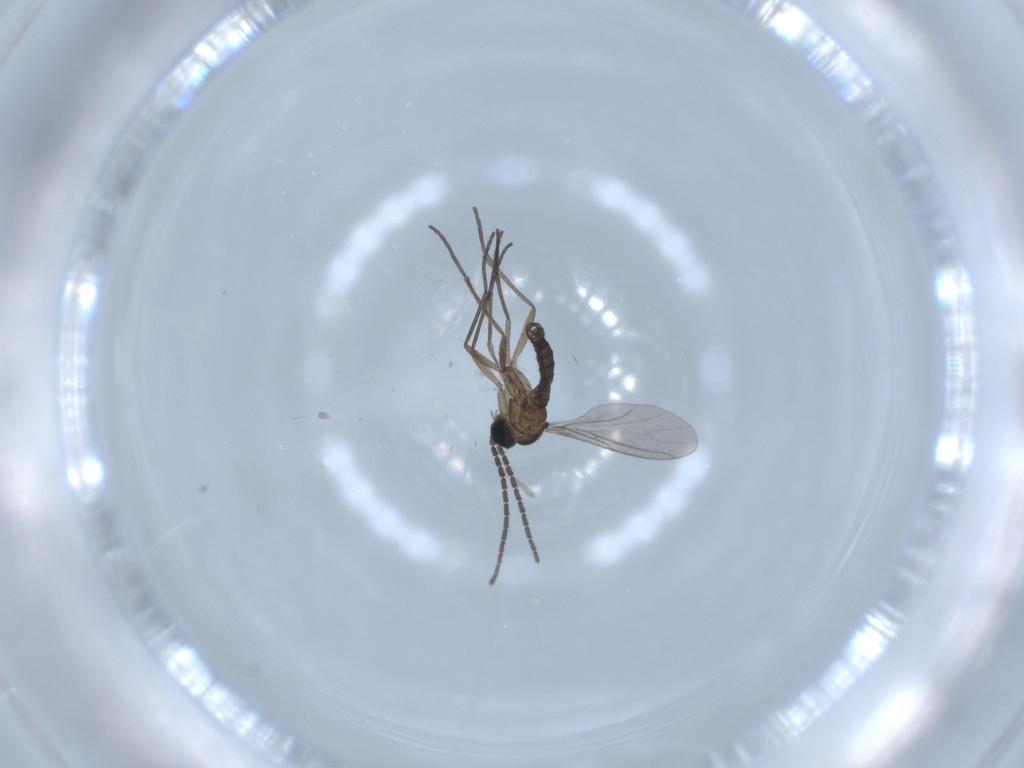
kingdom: Animalia
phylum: Arthropoda
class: Insecta
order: Diptera
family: Sciaridae
